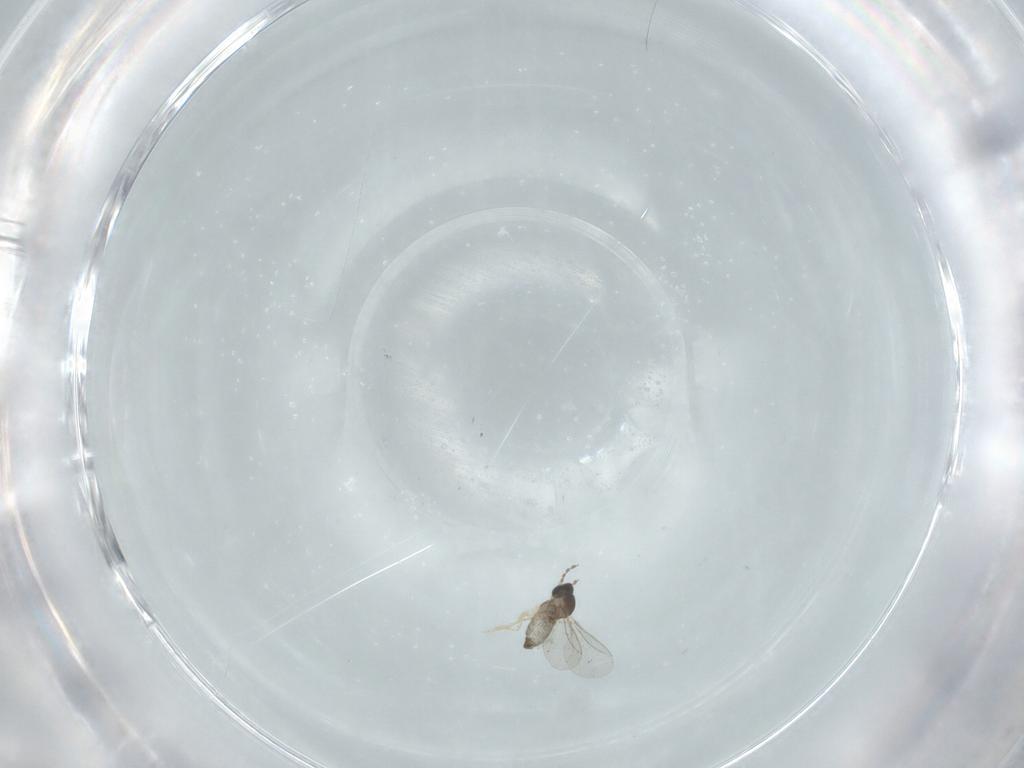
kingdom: Animalia
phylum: Arthropoda
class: Insecta
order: Diptera
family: Cecidomyiidae
